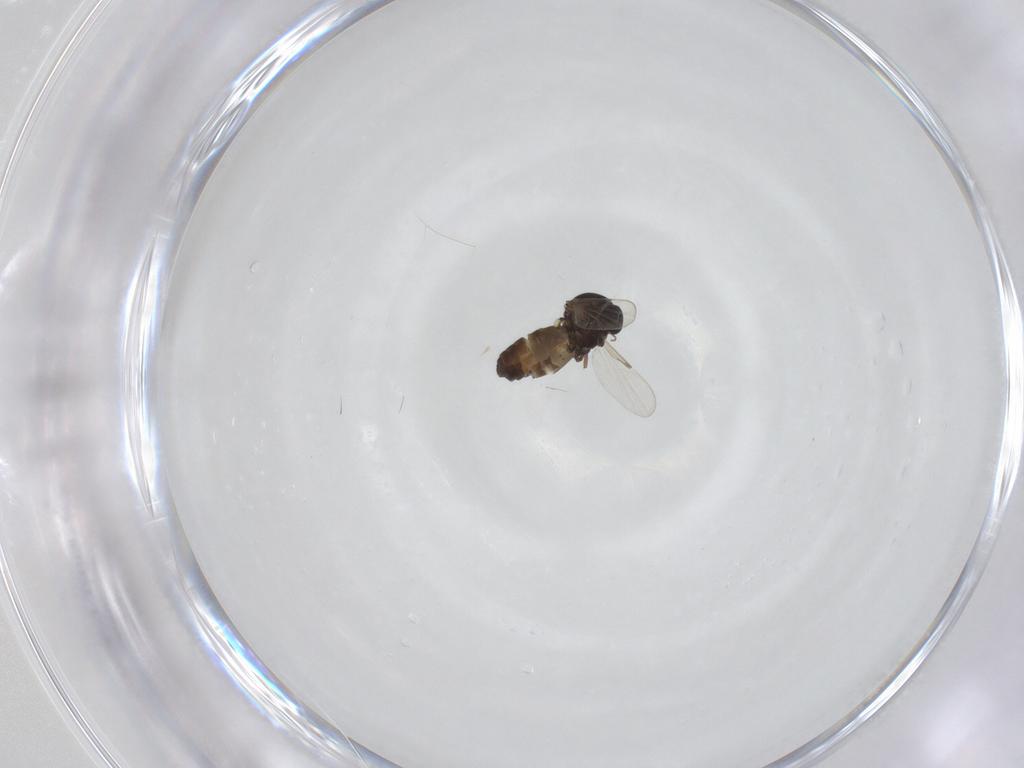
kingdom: Animalia
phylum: Arthropoda
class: Insecta
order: Diptera
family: Ceratopogonidae
